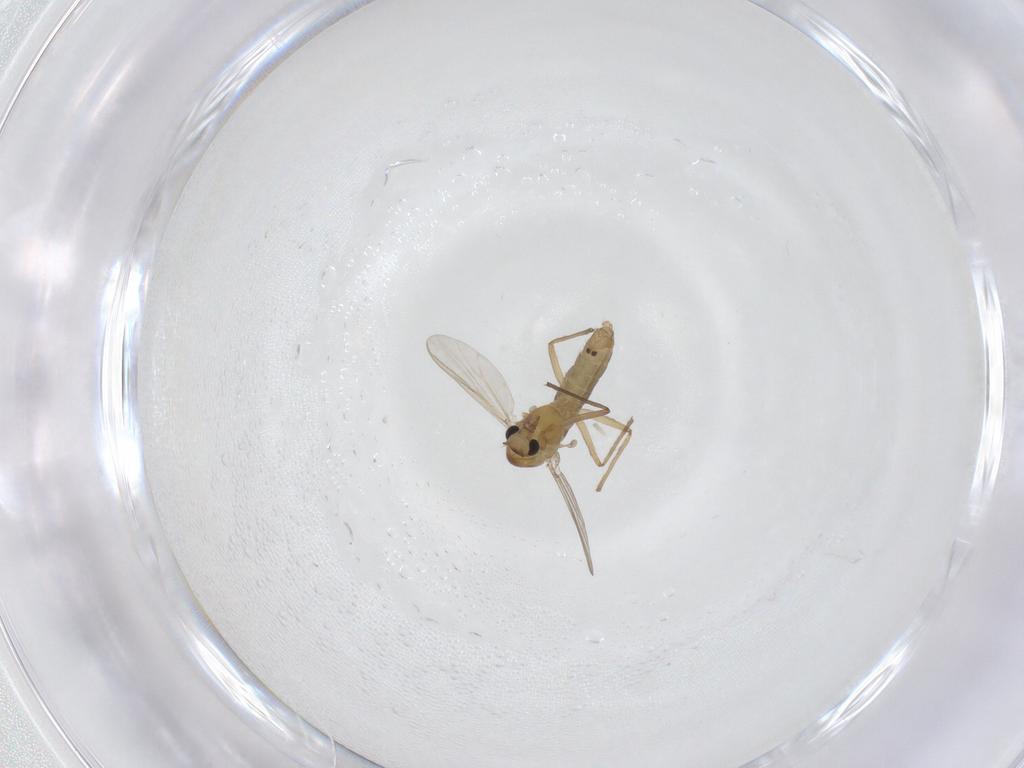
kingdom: Animalia
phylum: Arthropoda
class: Insecta
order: Diptera
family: Chironomidae
